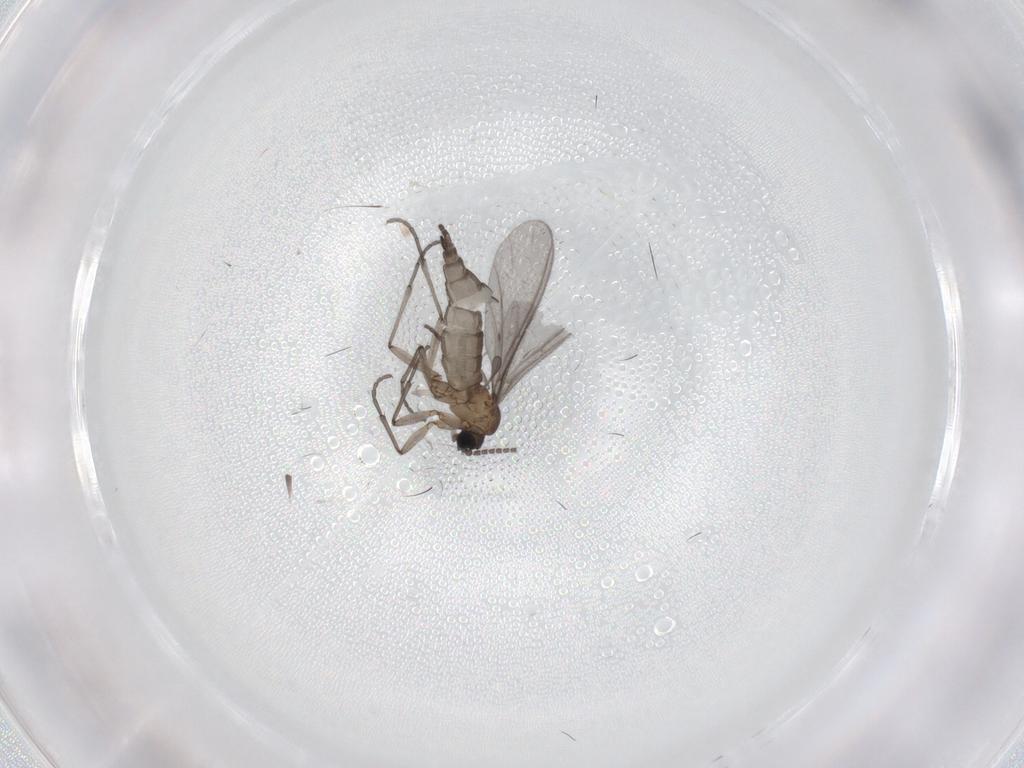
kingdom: Animalia
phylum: Arthropoda
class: Insecta
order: Diptera
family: Sciaridae
